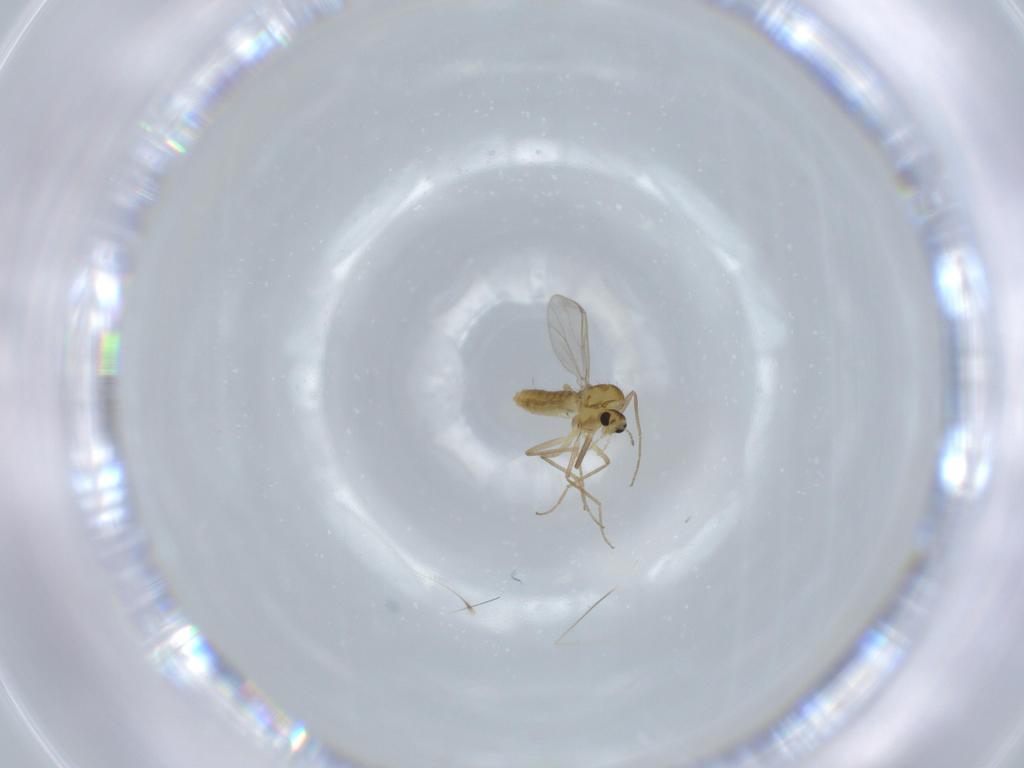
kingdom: Animalia
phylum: Arthropoda
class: Insecta
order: Diptera
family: Chironomidae
